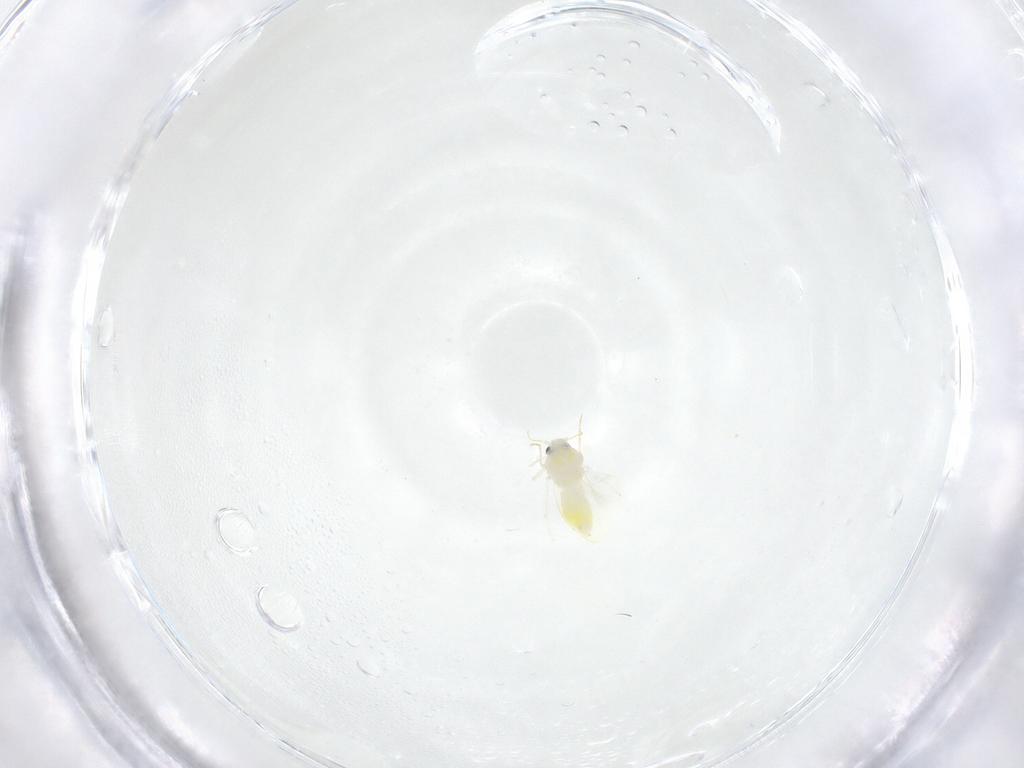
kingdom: Animalia
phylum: Arthropoda
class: Insecta
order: Hemiptera
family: Aleyrodidae
